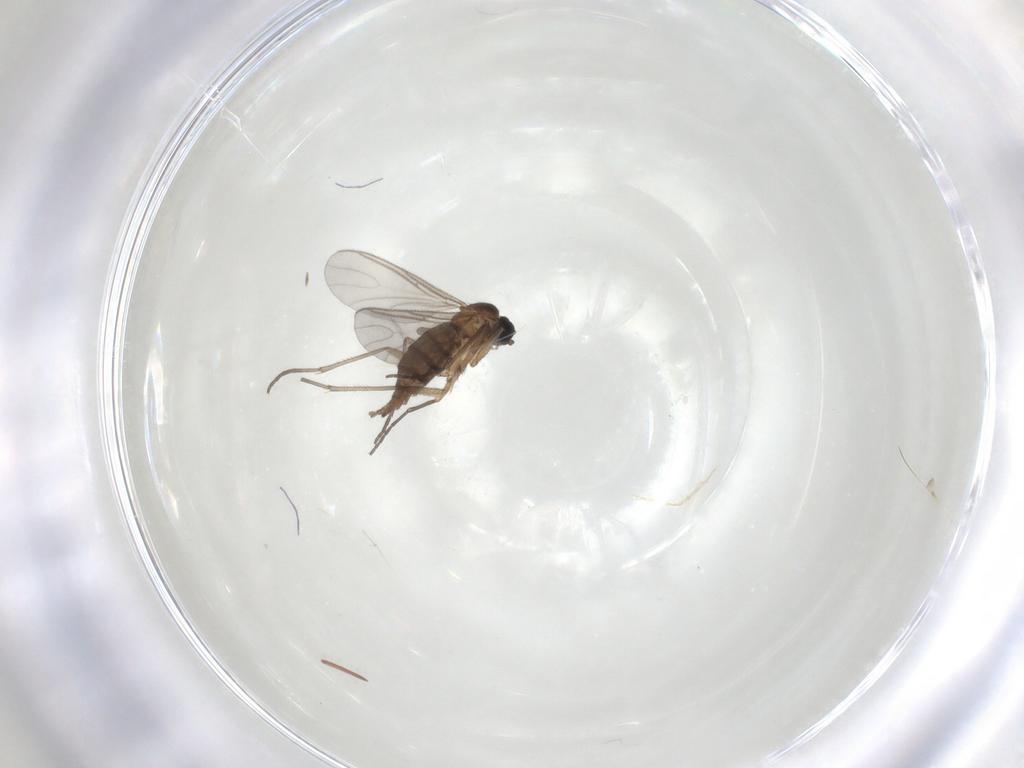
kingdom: Animalia
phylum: Arthropoda
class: Insecta
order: Diptera
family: Sciaridae
